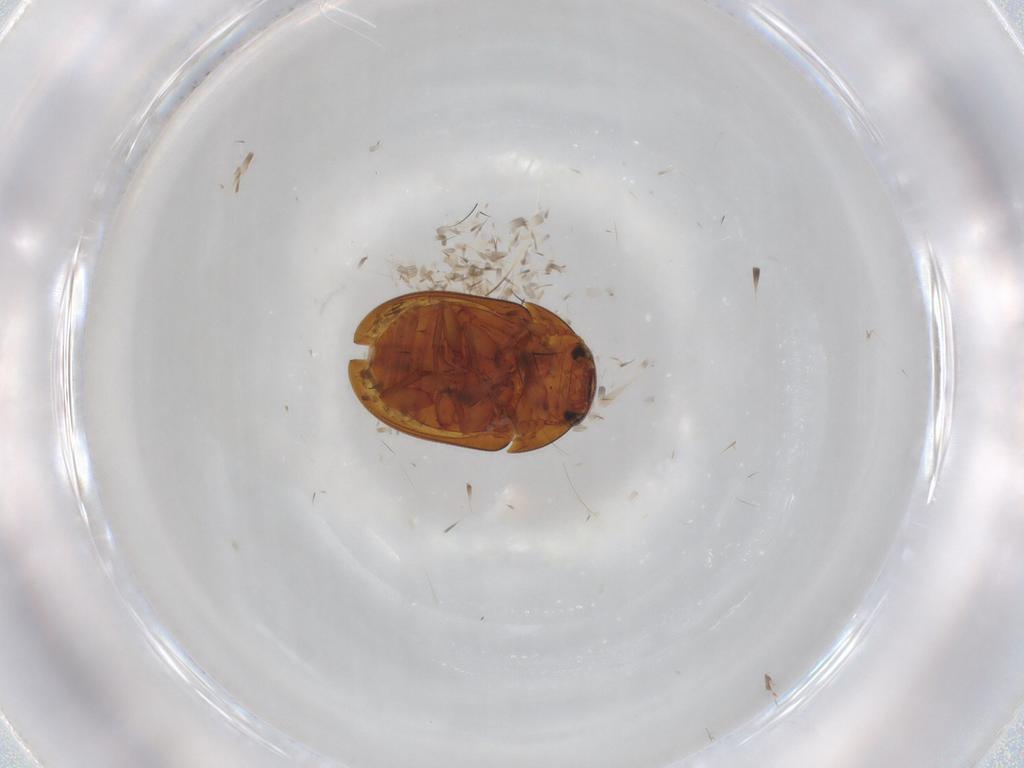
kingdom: Animalia
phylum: Arthropoda
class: Insecta
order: Coleoptera
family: Phalacridae
